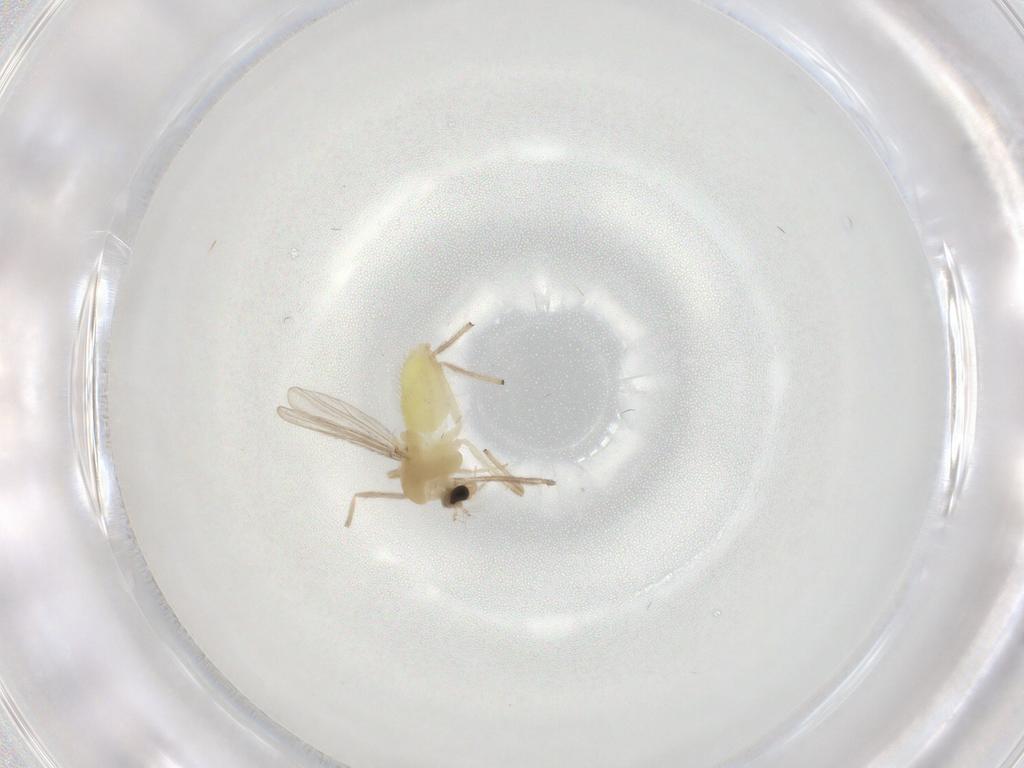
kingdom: Animalia
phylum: Arthropoda
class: Insecta
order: Diptera
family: Chironomidae
